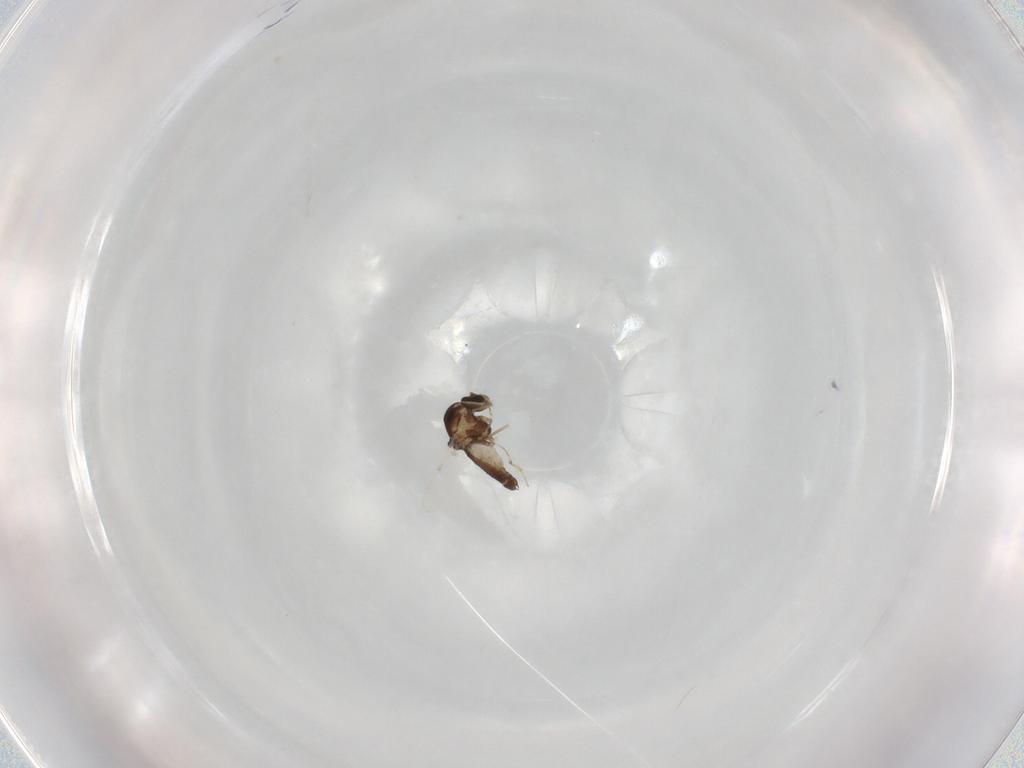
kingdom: Animalia
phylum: Arthropoda
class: Insecta
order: Diptera
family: Ceratopogonidae
